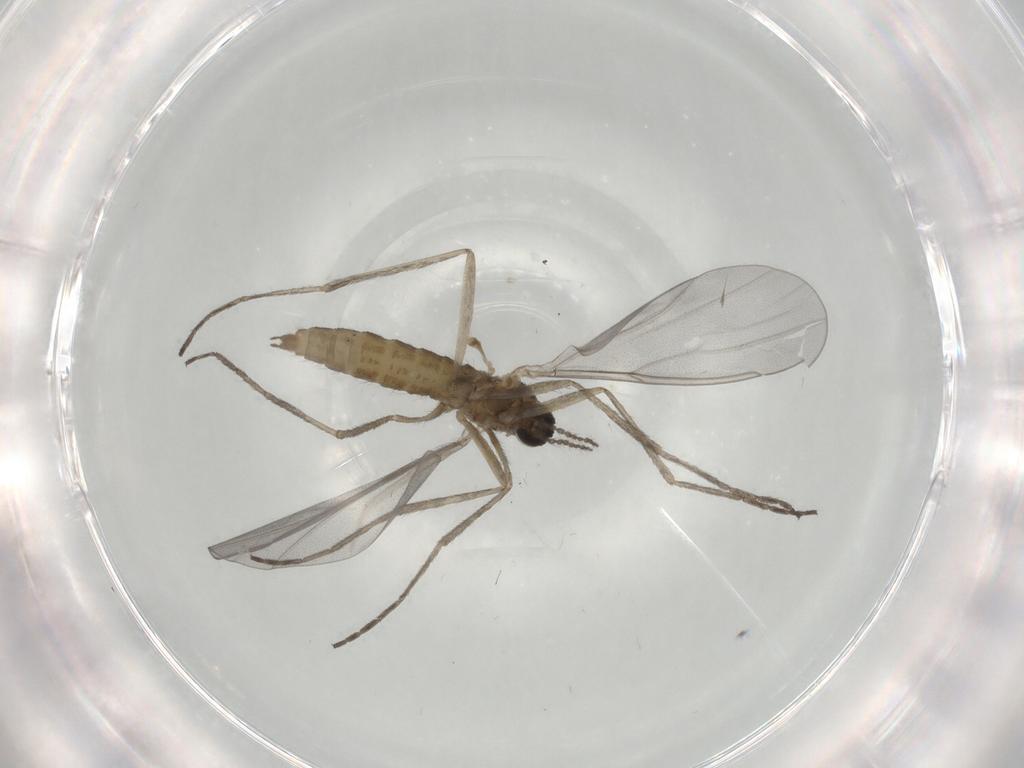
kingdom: Animalia
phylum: Arthropoda
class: Insecta
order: Diptera
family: Cecidomyiidae
